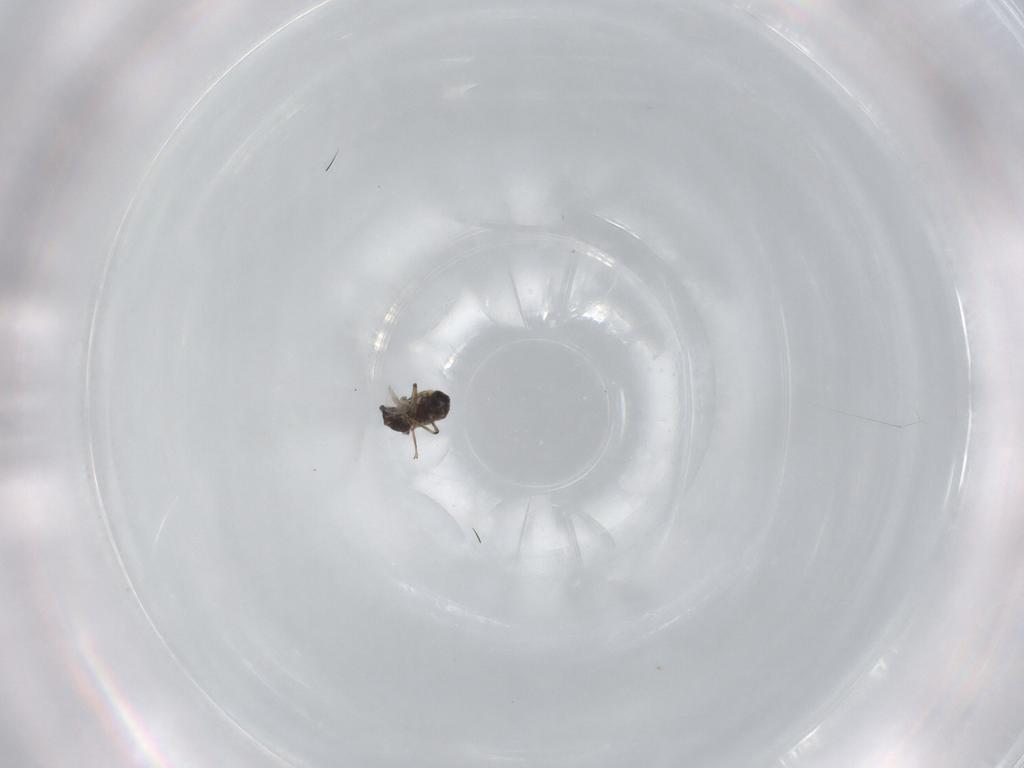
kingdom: Animalia
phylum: Arthropoda
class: Insecta
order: Diptera
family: Ceratopogonidae
